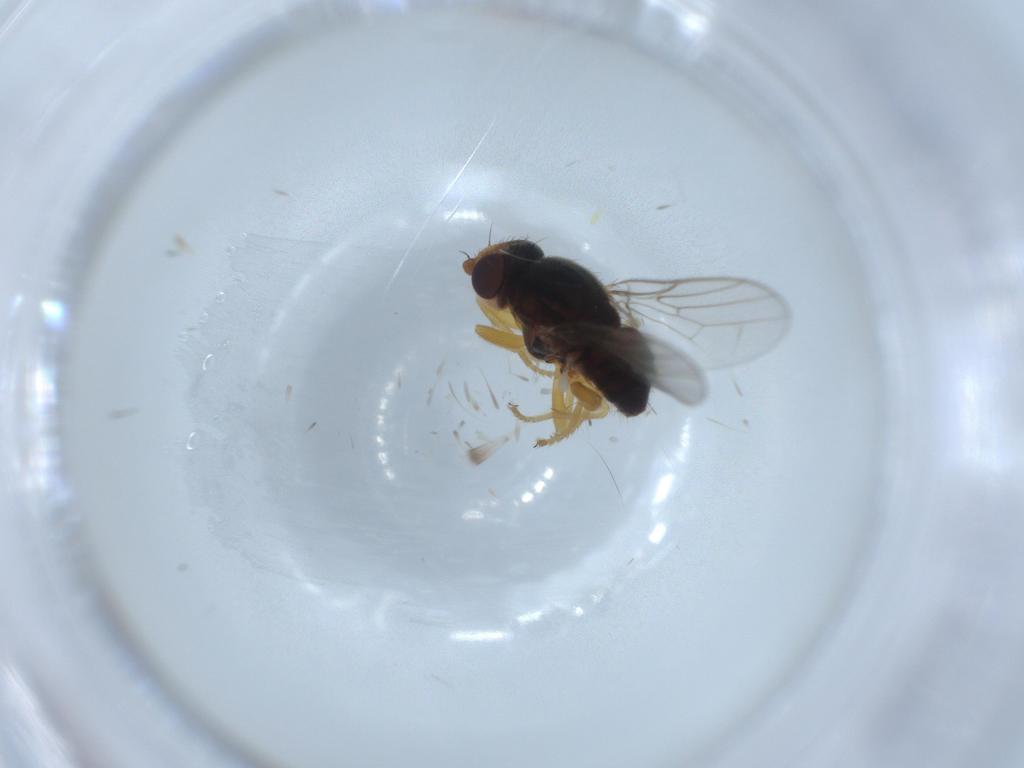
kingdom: Animalia
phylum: Arthropoda
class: Insecta
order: Diptera
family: Chloropidae
